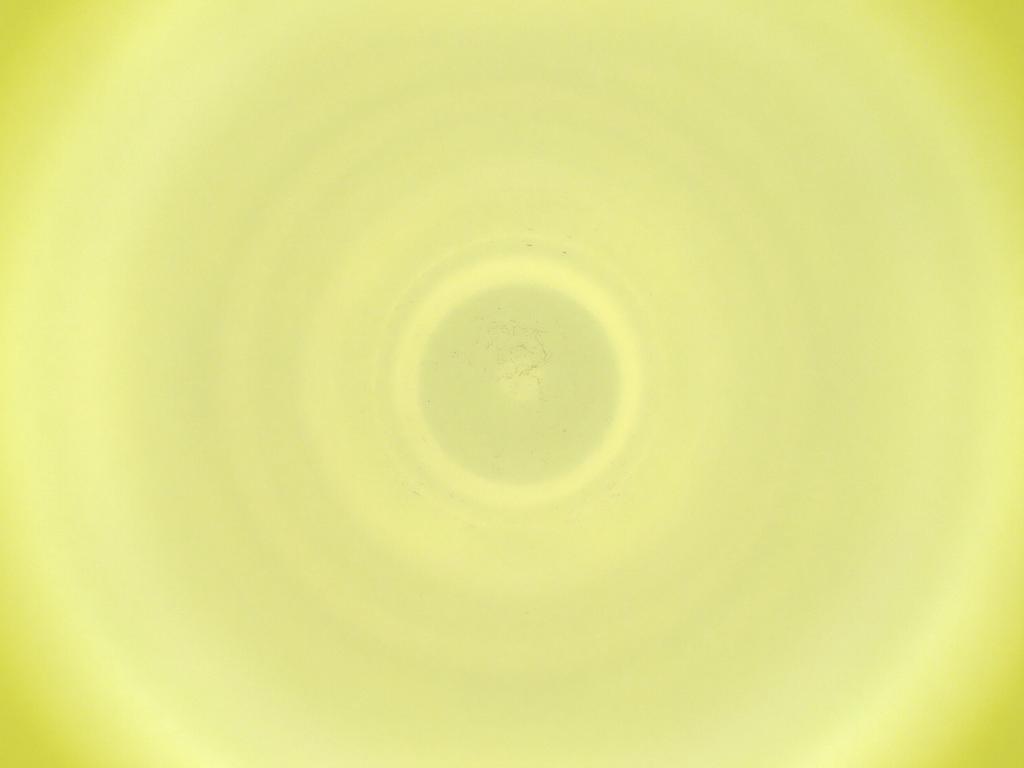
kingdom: Animalia
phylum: Arthropoda
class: Insecta
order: Diptera
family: Cecidomyiidae
